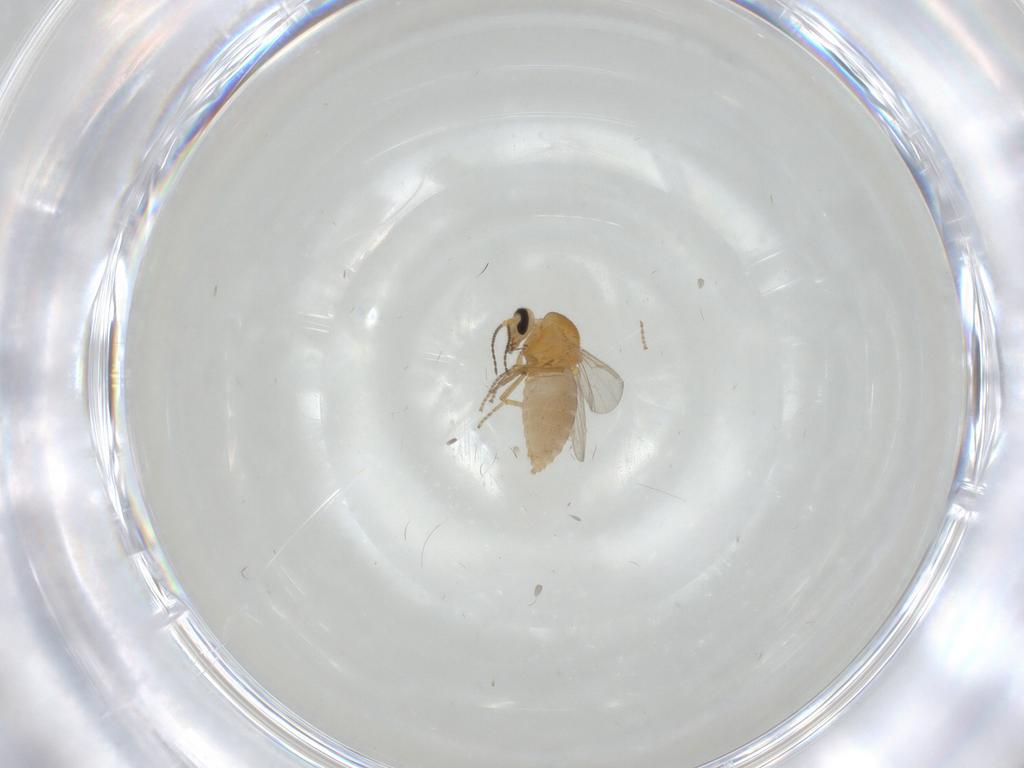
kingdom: Animalia
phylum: Arthropoda
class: Insecta
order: Diptera
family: Ceratopogonidae
